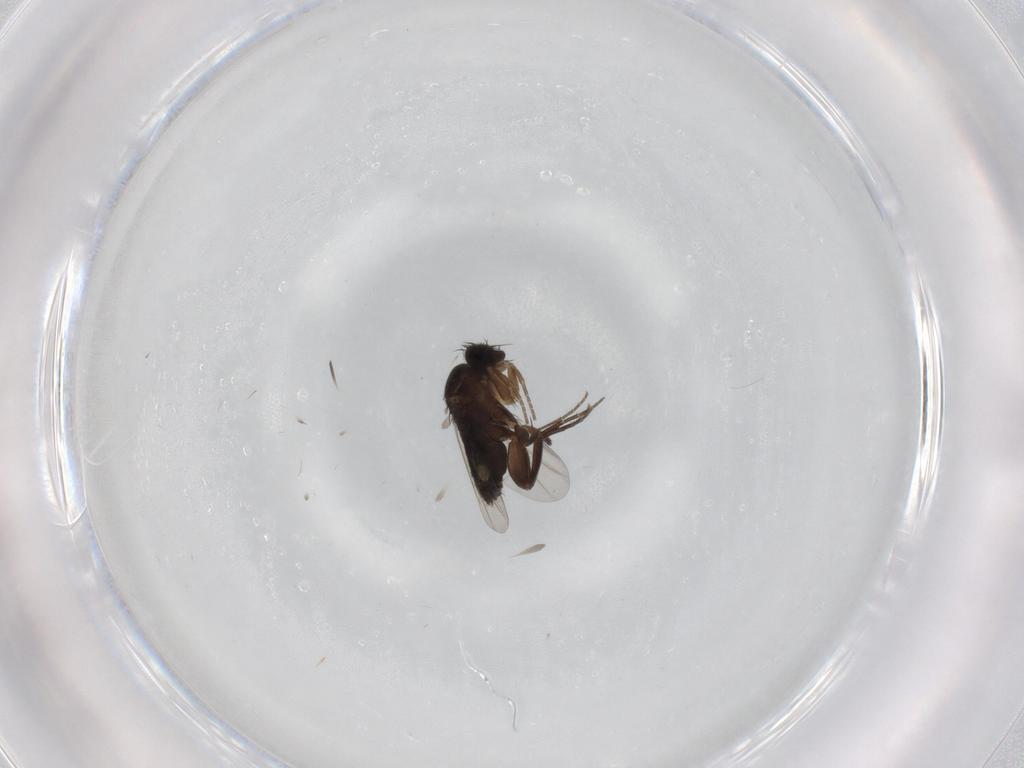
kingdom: Animalia
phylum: Arthropoda
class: Insecta
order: Diptera
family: Phoridae
